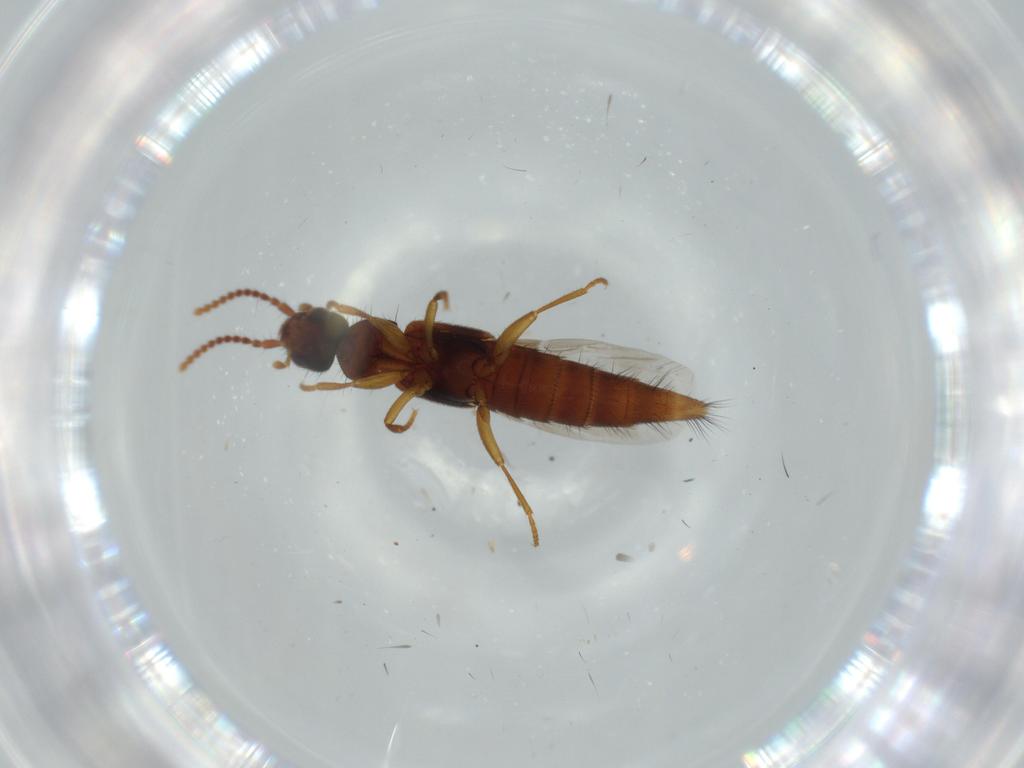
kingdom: Animalia
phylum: Arthropoda
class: Insecta
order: Coleoptera
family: Staphylinidae
